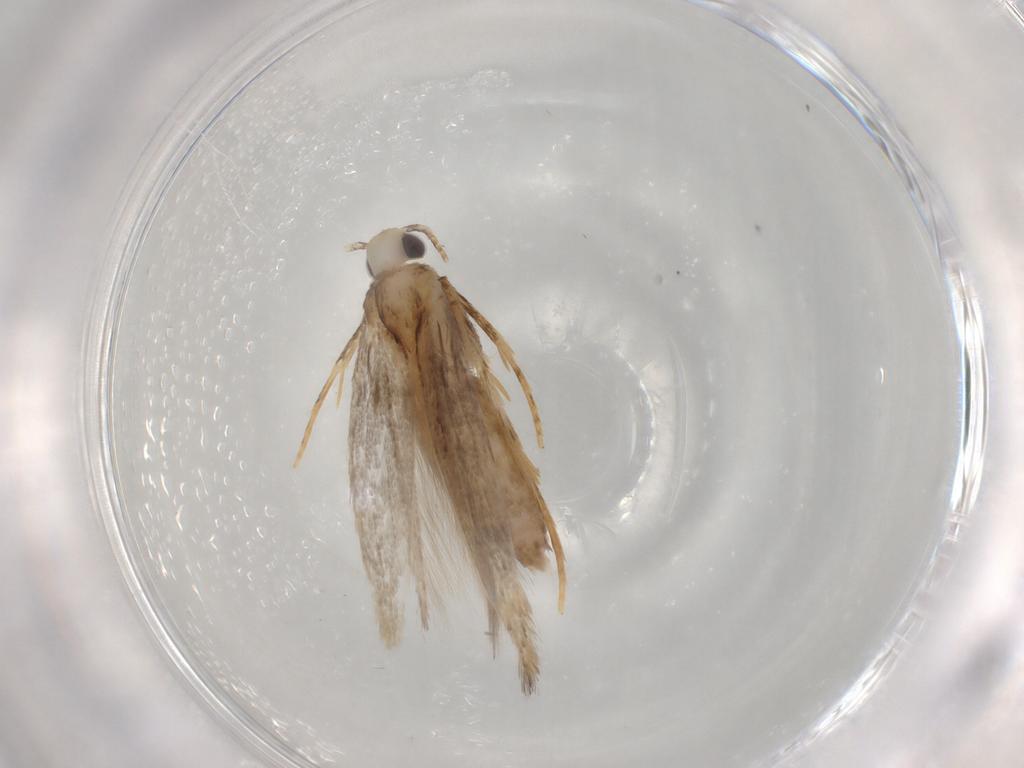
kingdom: Animalia
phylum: Arthropoda
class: Insecta
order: Lepidoptera
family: Coleophoridae
